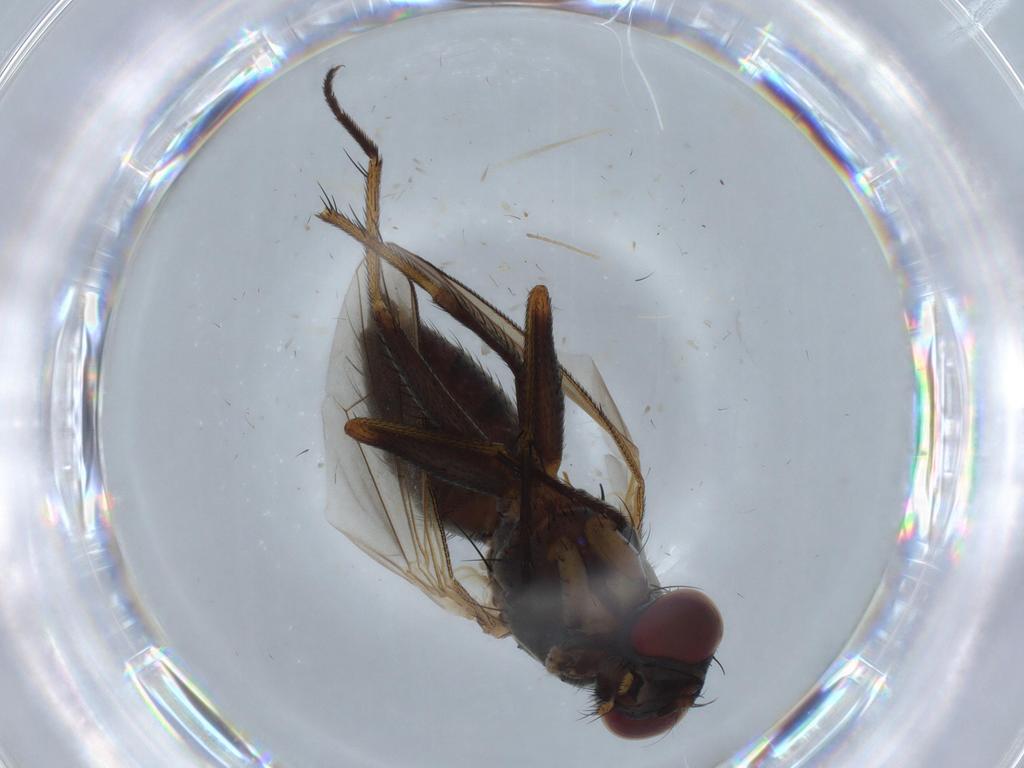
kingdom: Animalia
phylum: Arthropoda
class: Insecta
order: Diptera
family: Muscidae
